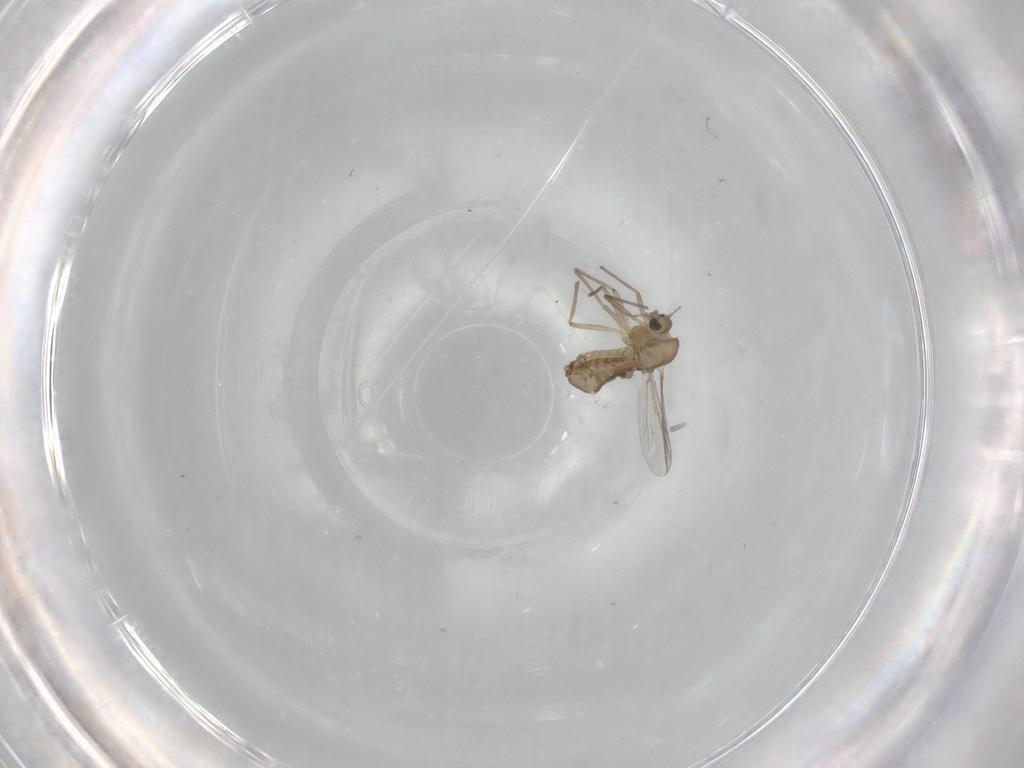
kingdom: Animalia
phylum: Arthropoda
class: Insecta
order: Diptera
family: Chironomidae
